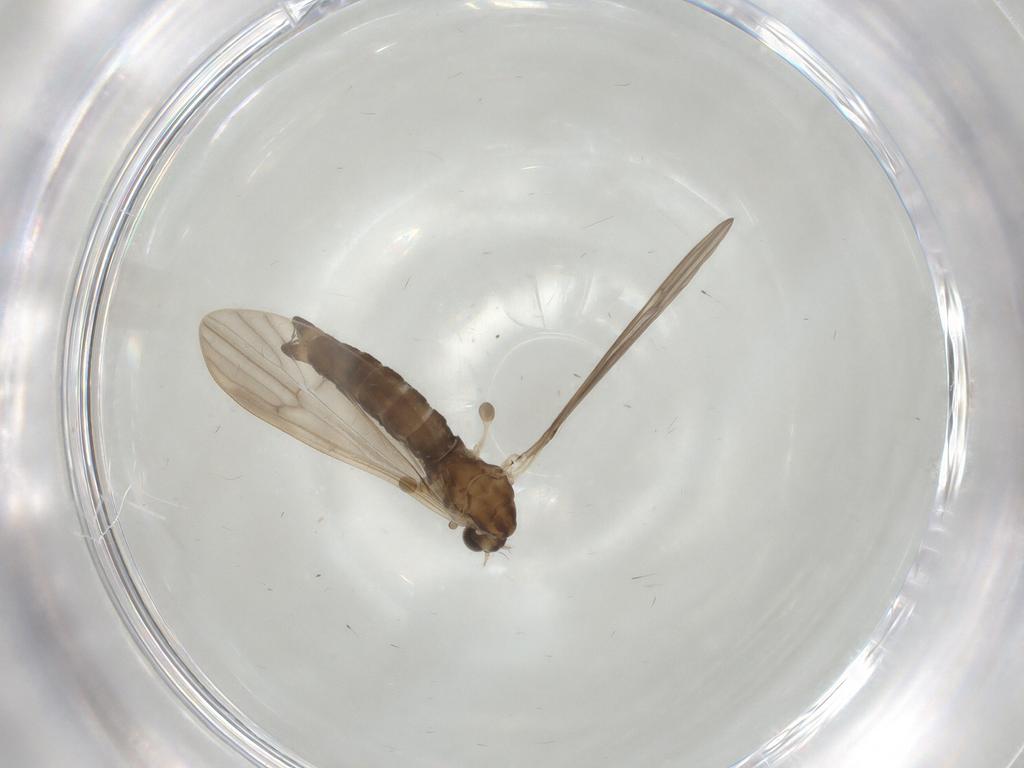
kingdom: Animalia
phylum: Arthropoda
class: Insecta
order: Diptera
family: Limoniidae
